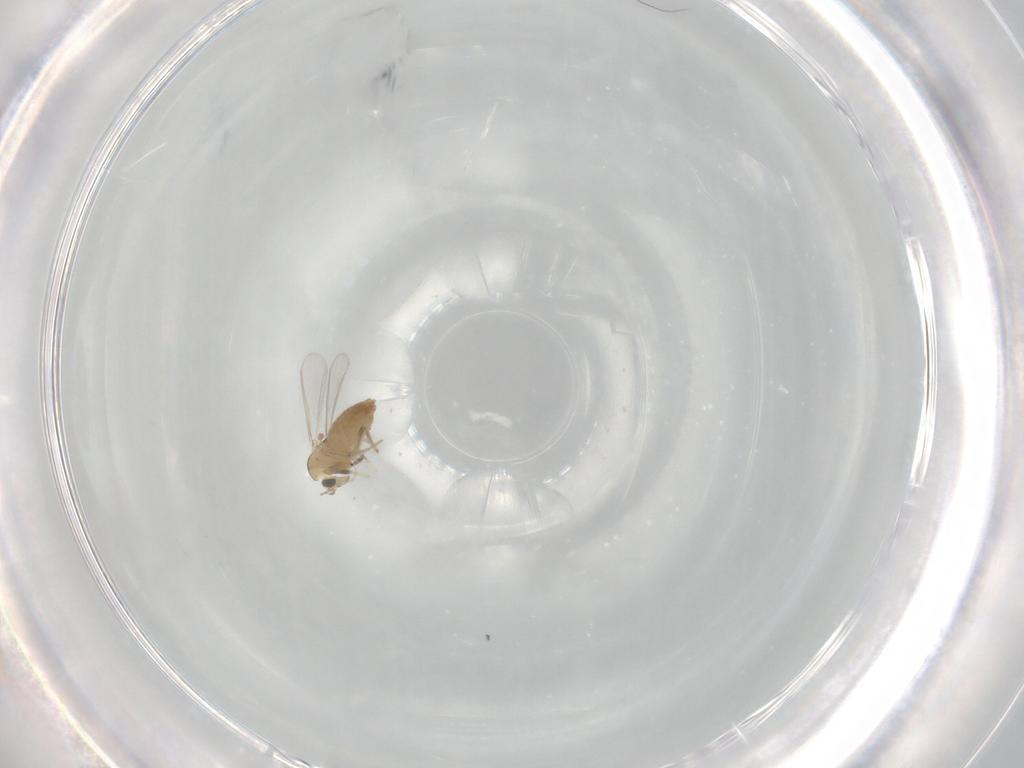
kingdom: Animalia
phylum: Arthropoda
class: Insecta
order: Diptera
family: Chironomidae
